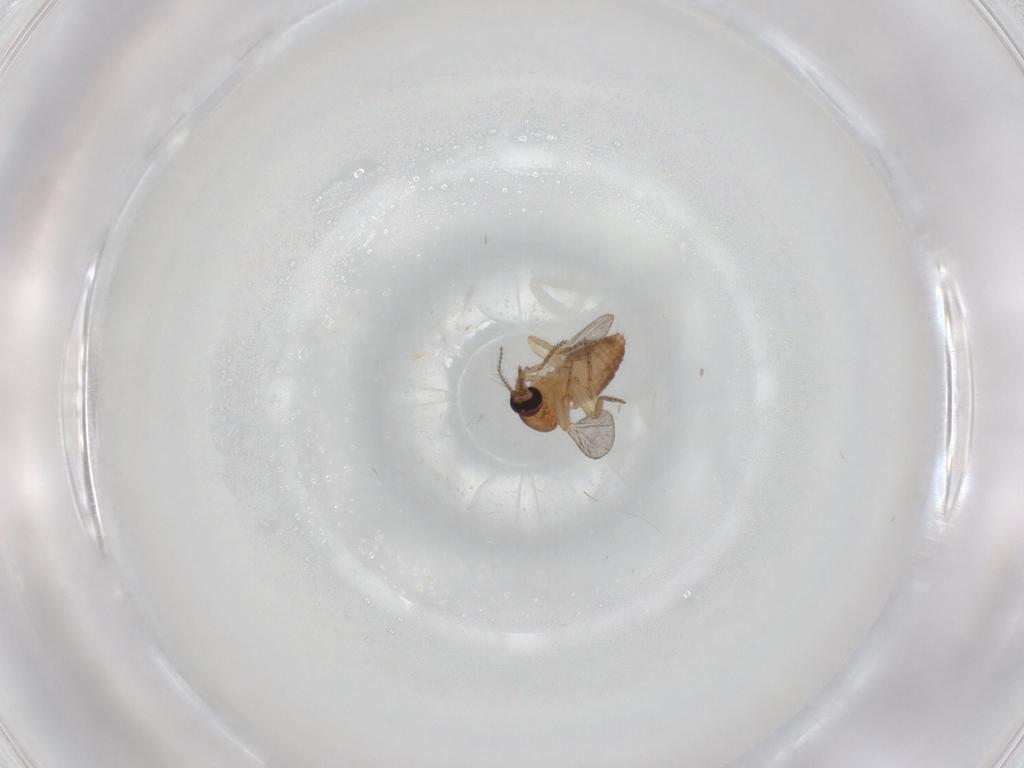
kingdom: Animalia
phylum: Arthropoda
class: Insecta
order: Diptera
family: Ceratopogonidae
